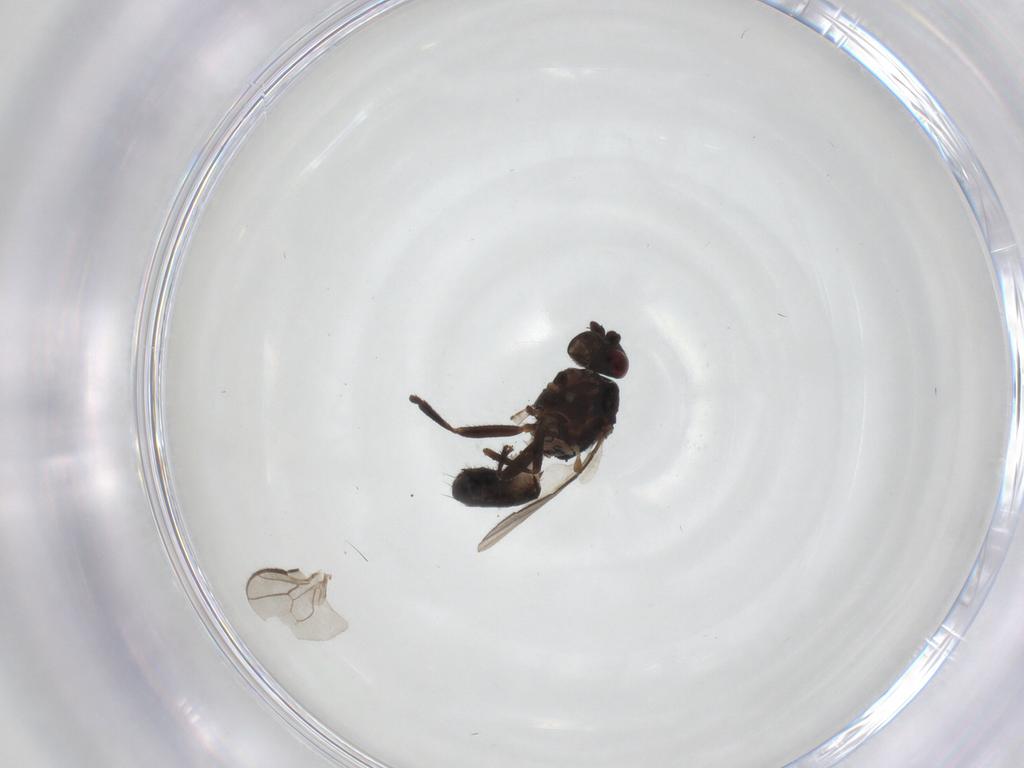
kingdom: Animalia
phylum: Arthropoda
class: Insecta
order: Diptera
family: Sphaeroceridae
